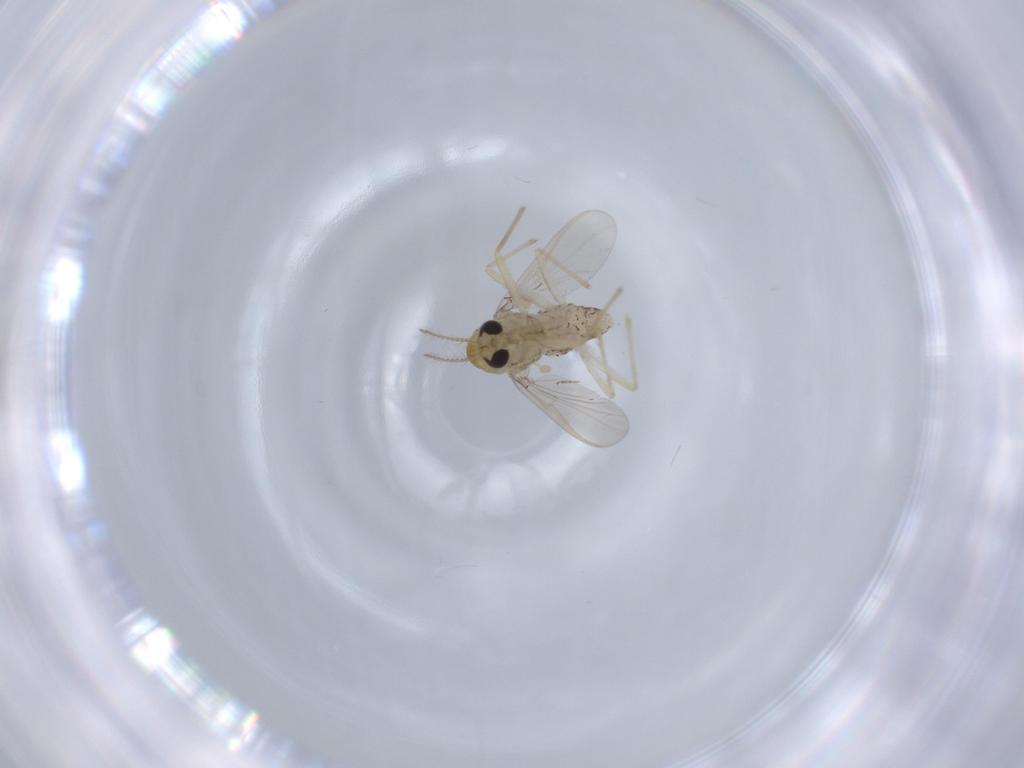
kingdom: Animalia
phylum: Arthropoda
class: Insecta
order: Diptera
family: Chironomidae
